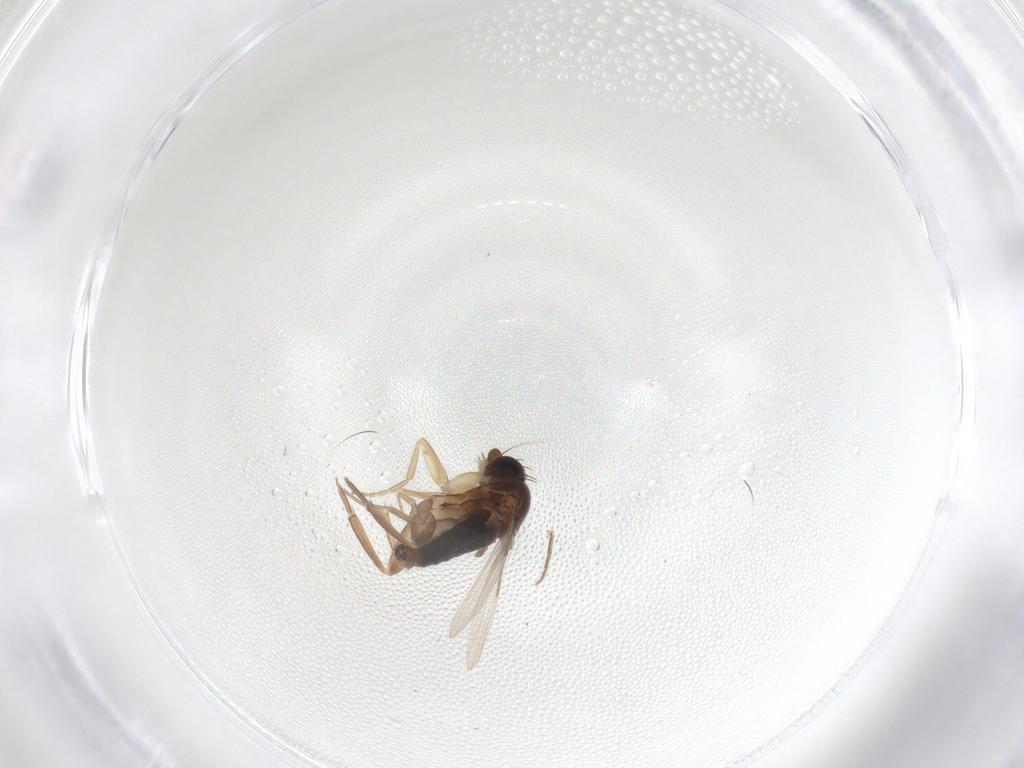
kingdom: Animalia
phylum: Arthropoda
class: Insecta
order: Diptera
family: Phoridae
